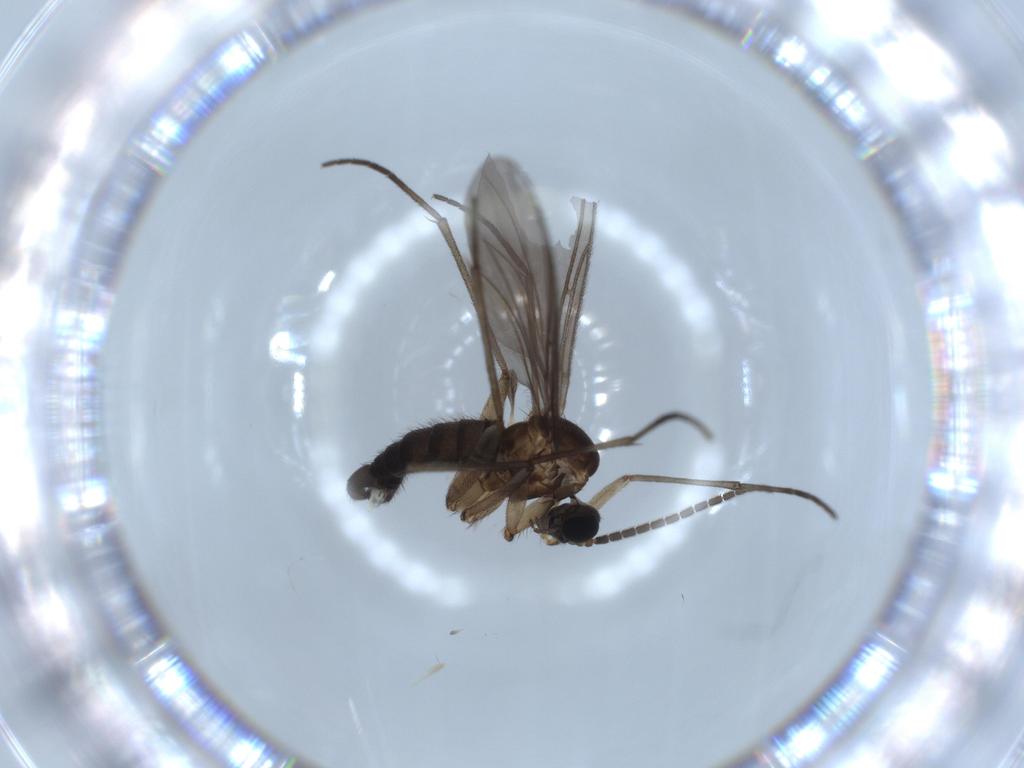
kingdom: Animalia
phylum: Arthropoda
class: Insecta
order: Diptera
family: Sciaridae
